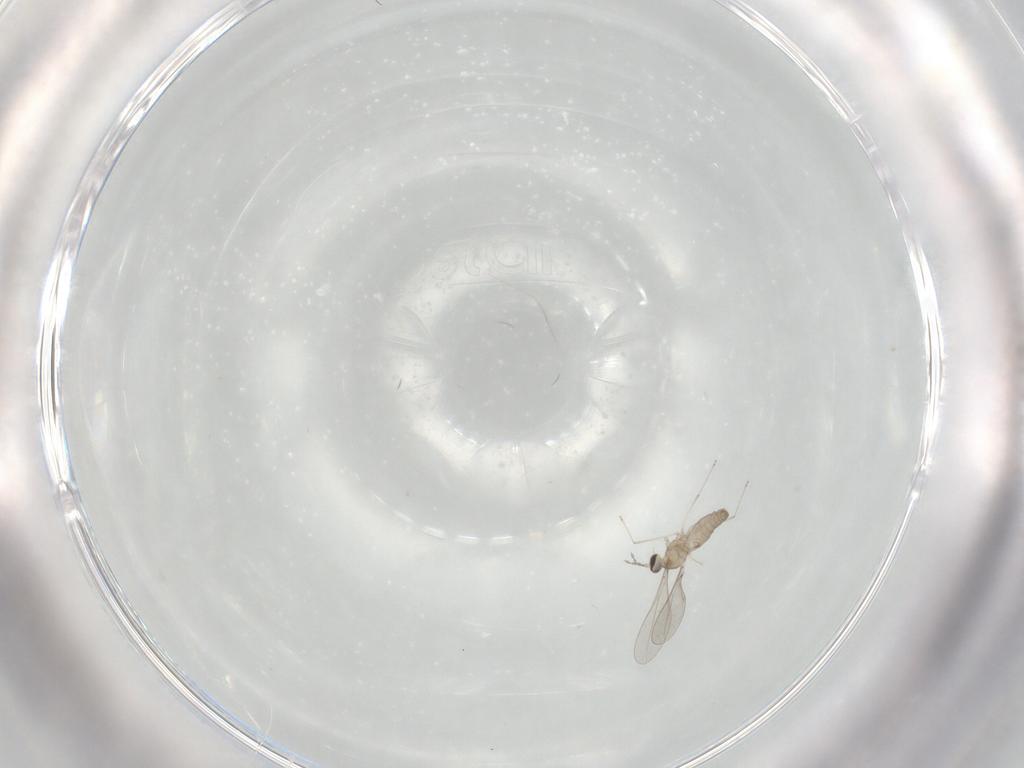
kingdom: Animalia
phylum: Arthropoda
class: Insecta
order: Diptera
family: Cecidomyiidae
